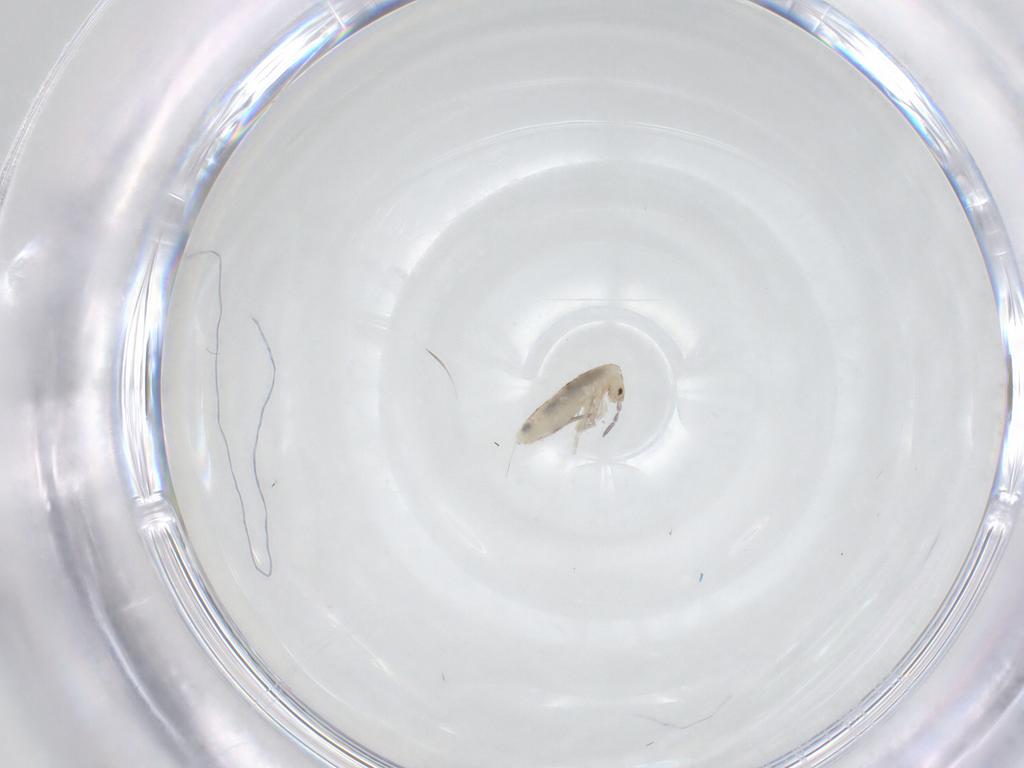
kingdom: Animalia
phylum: Arthropoda
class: Collembola
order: Entomobryomorpha
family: Entomobryidae
